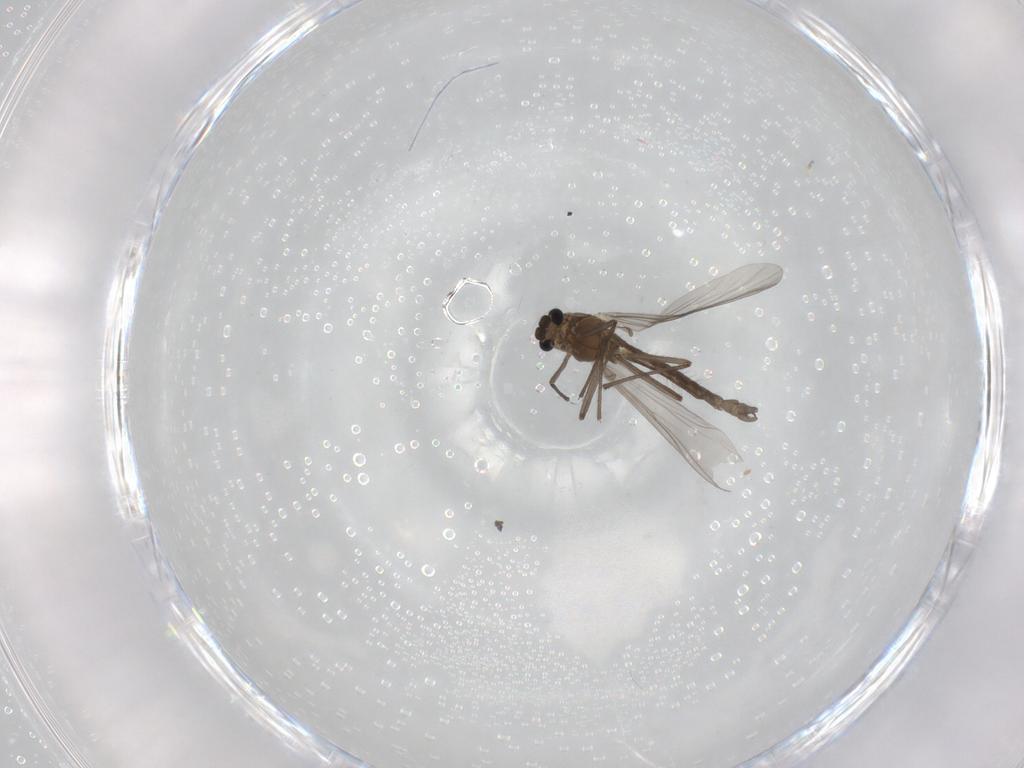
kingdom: Animalia
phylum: Arthropoda
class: Insecta
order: Diptera
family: Chironomidae
